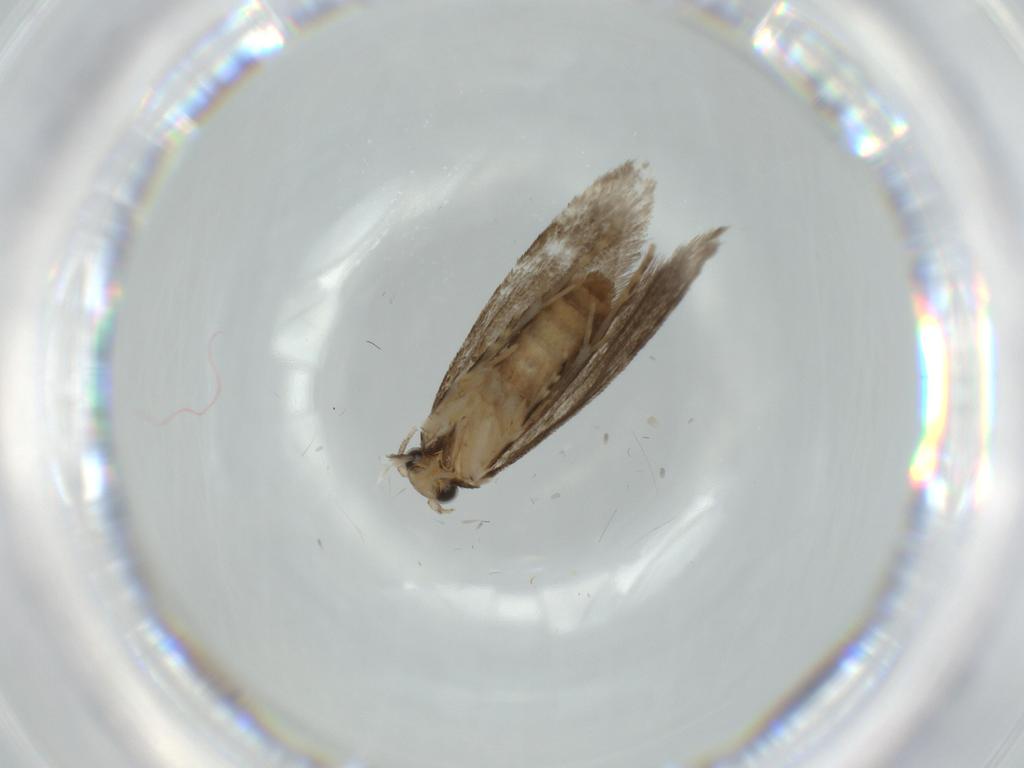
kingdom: Animalia
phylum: Arthropoda
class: Insecta
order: Lepidoptera
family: Tineidae
